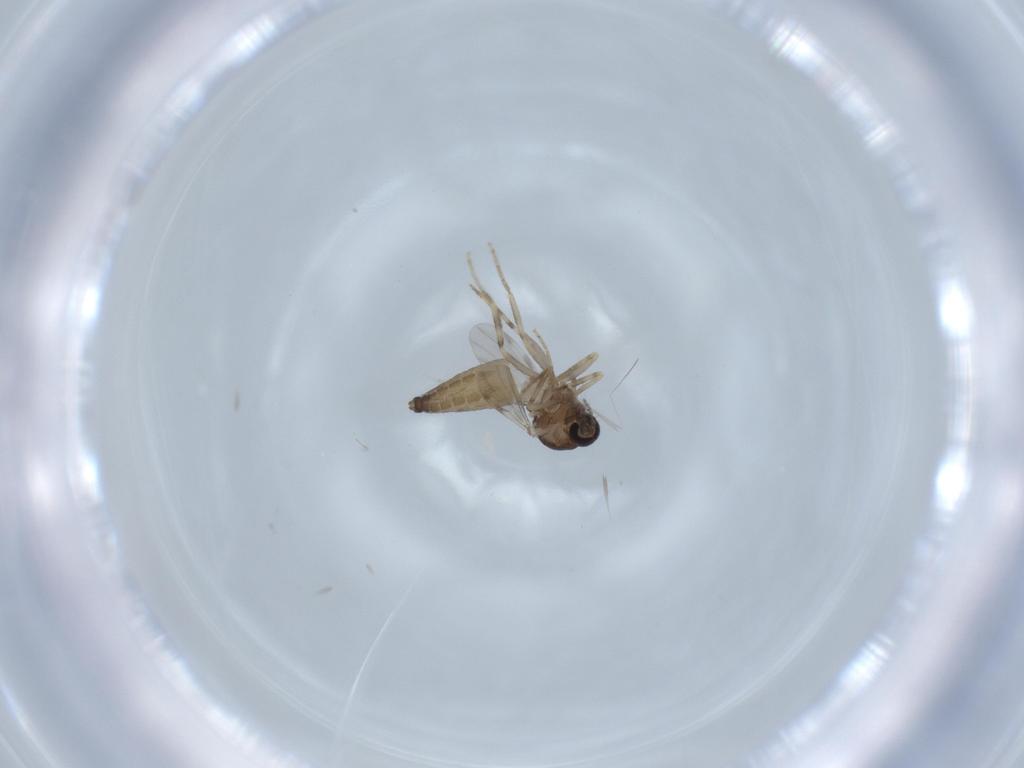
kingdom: Animalia
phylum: Arthropoda
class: Insecta
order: Diptera
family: Ceratopogonidae
